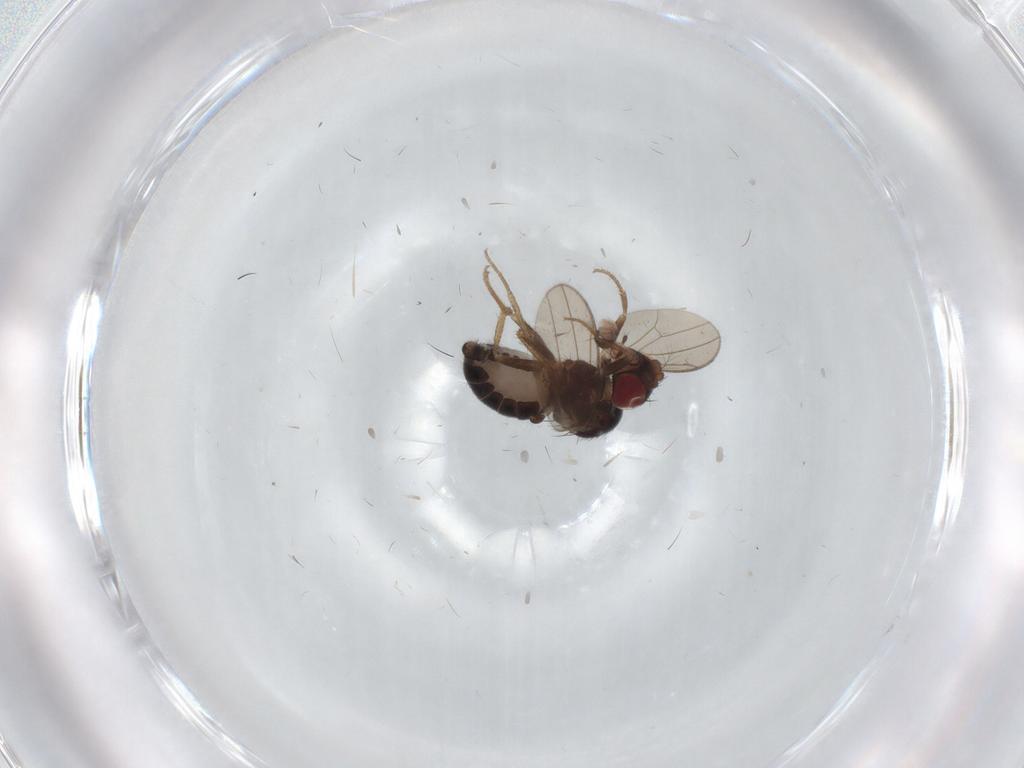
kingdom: Animalia
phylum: Arthropoda
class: Insecta
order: Diptera
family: Drosophilidae
